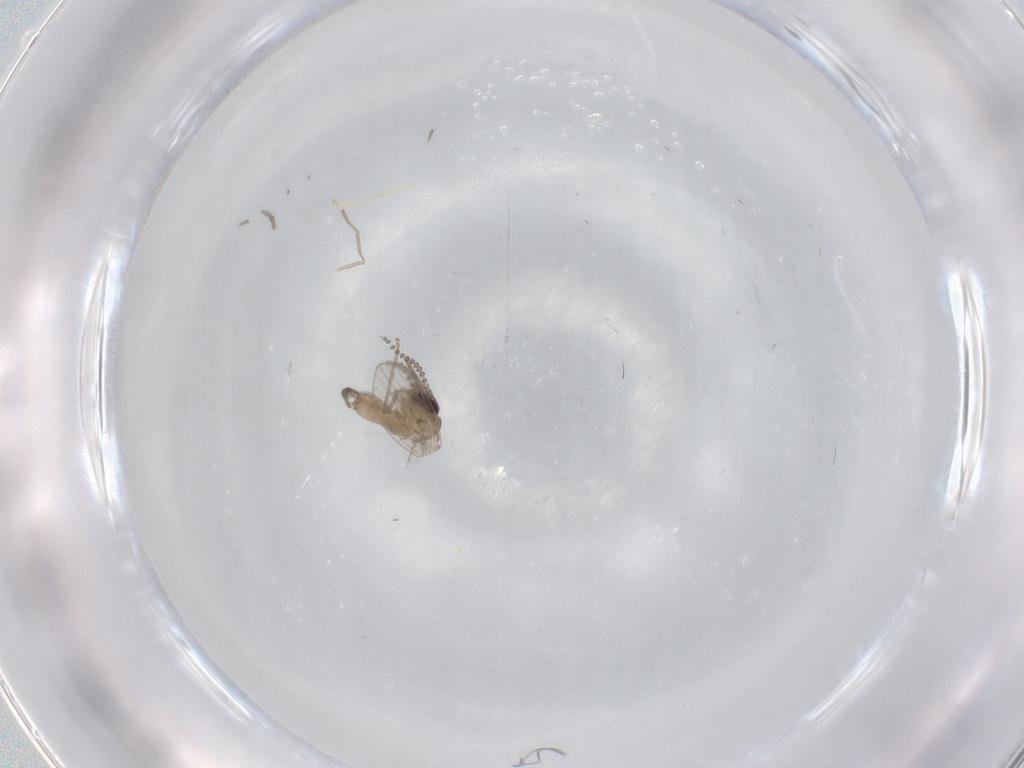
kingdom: Animalia
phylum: Arthropoda
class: Insecta
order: Diptera
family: Psychodidae
